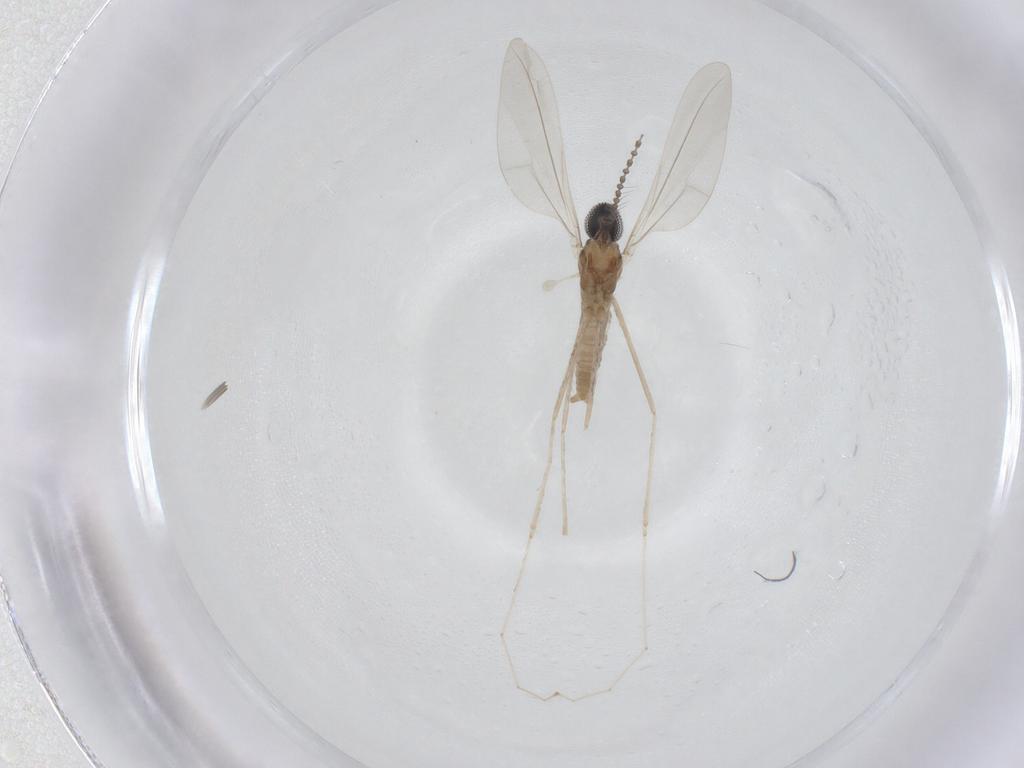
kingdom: Animalia
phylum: Arthropoda
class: Insecta
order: Diptera
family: Cecidomyiidae
